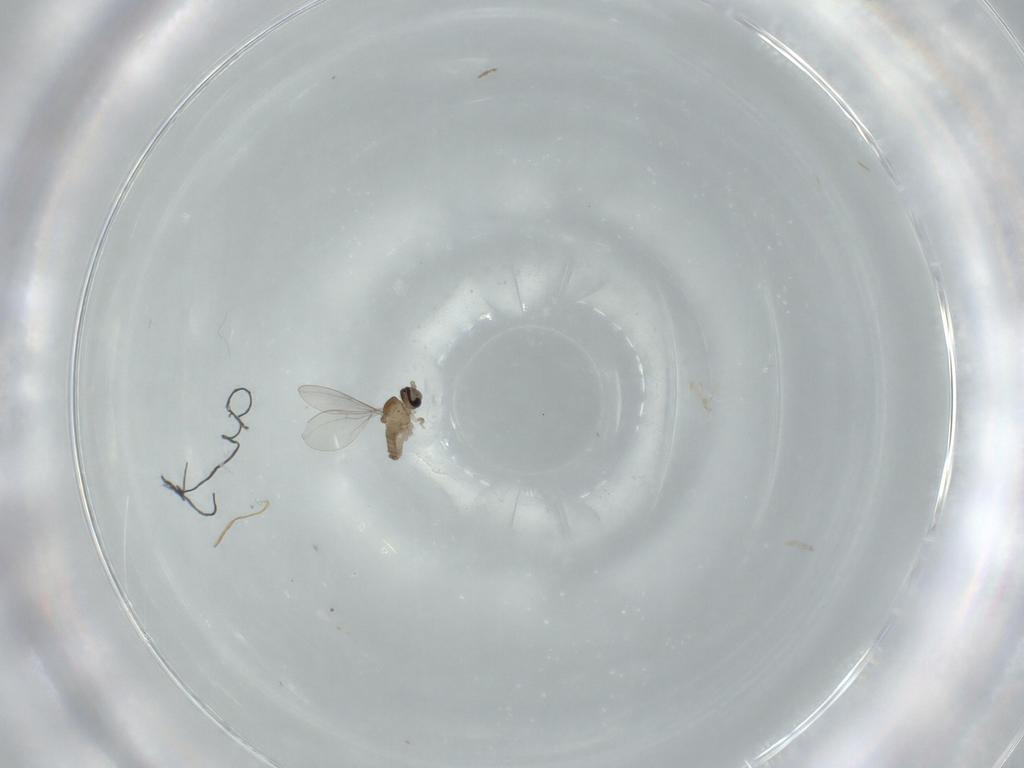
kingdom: Animalia
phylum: Arthropoda
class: Insecta
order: Diptera
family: Cecidomyiidae
